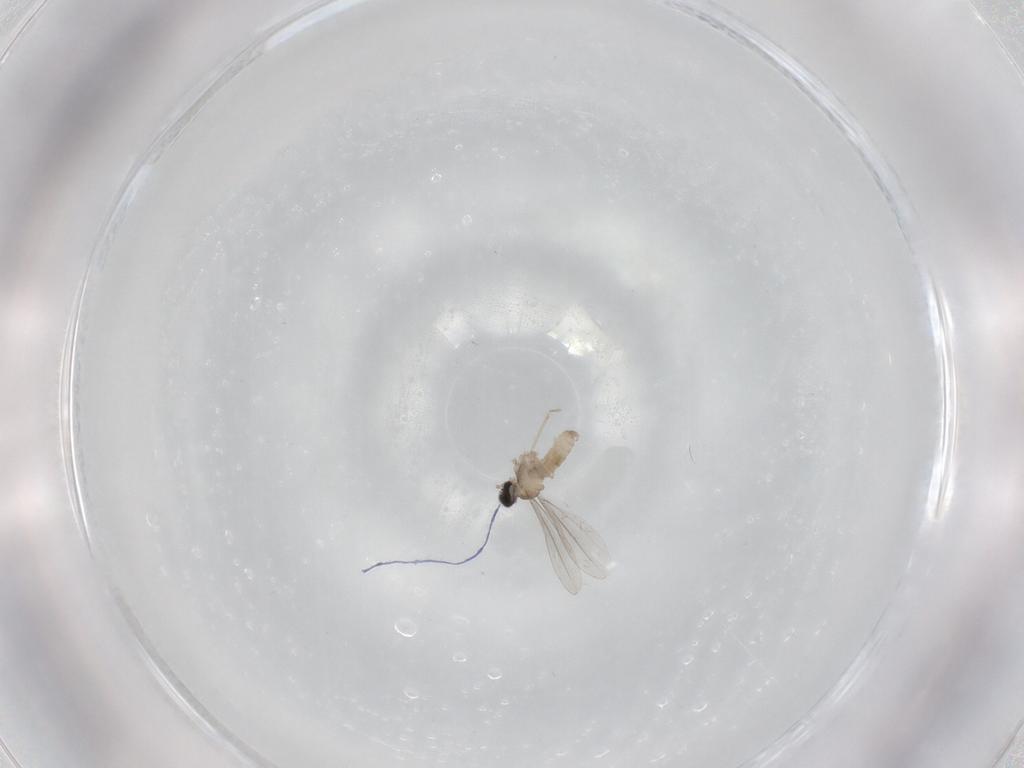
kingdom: Animalia
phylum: Arthropoda
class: Insecta
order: Diptera
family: Cecidomyiidae
